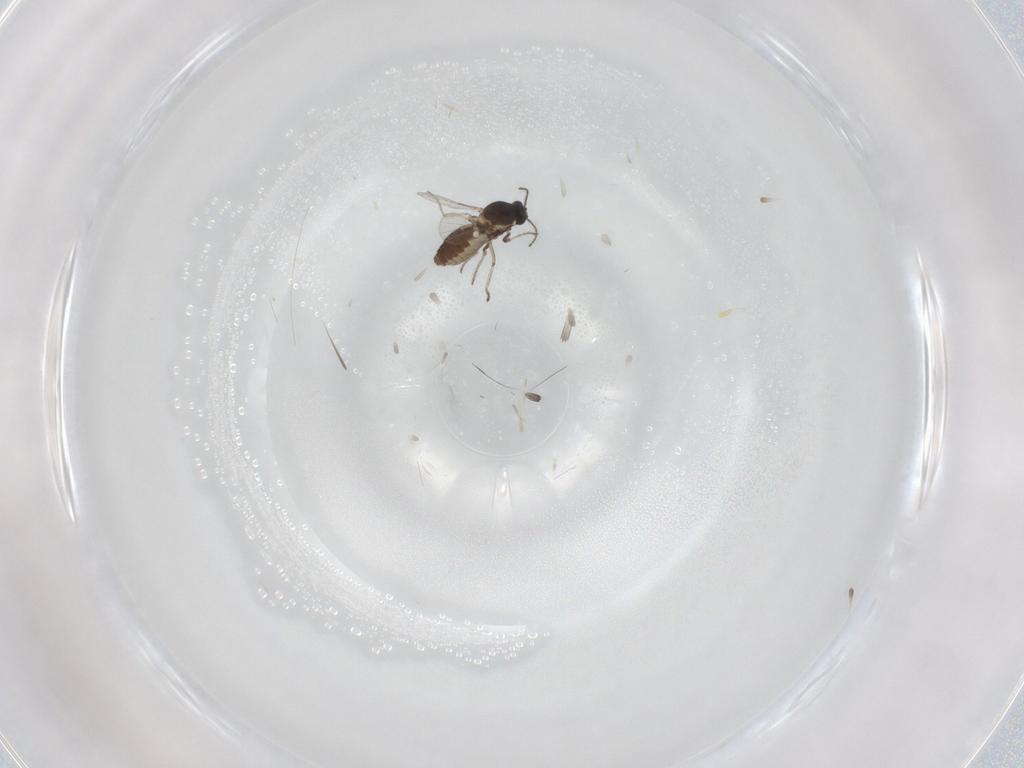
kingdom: Animalia
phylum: Arthropoda
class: Insecta
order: Diptera
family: Ceratopogonidae
